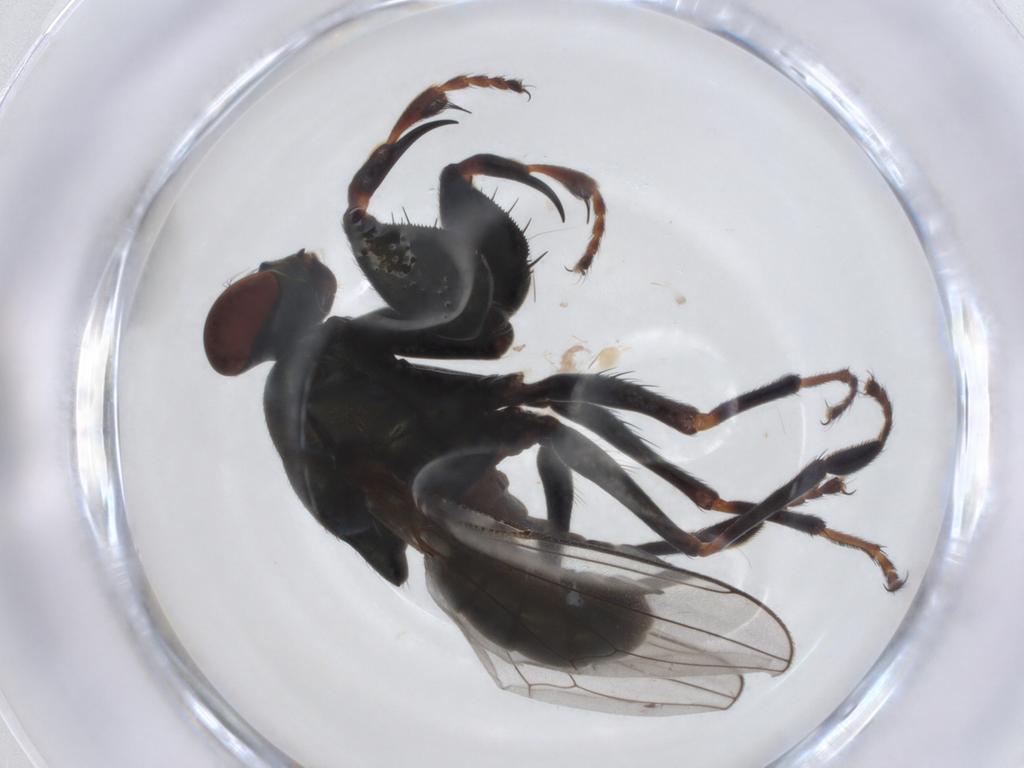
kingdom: Animalia
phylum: Arthropoda
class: Insecta
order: Diptera
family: Ephydridae
